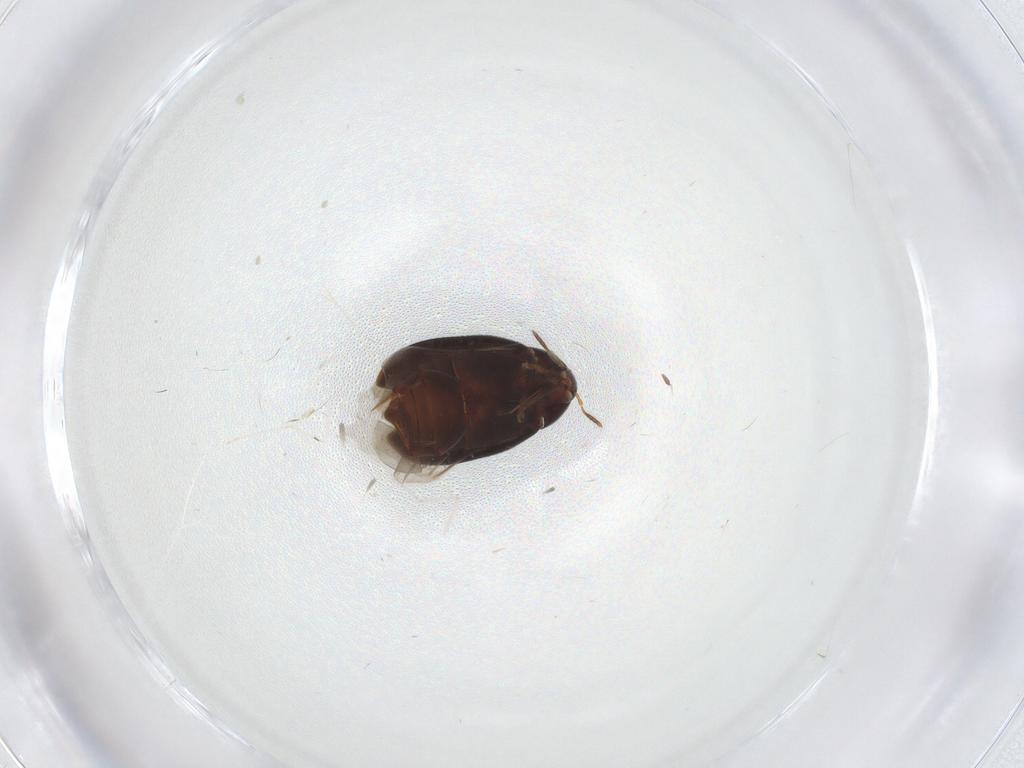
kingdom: Animalia
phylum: Arthropoda
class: Insecta
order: Coleoptera
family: Melandryidae
